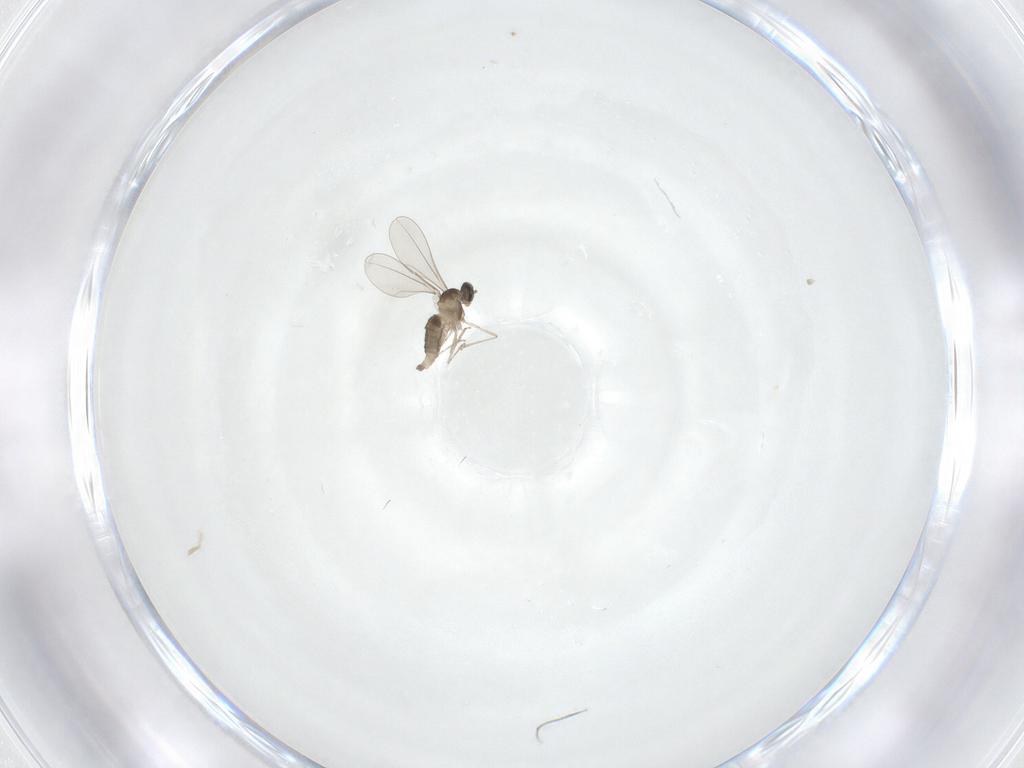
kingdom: Animalia
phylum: Arthropoda
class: Insecta
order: Diptera
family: Cecidomyiidae
